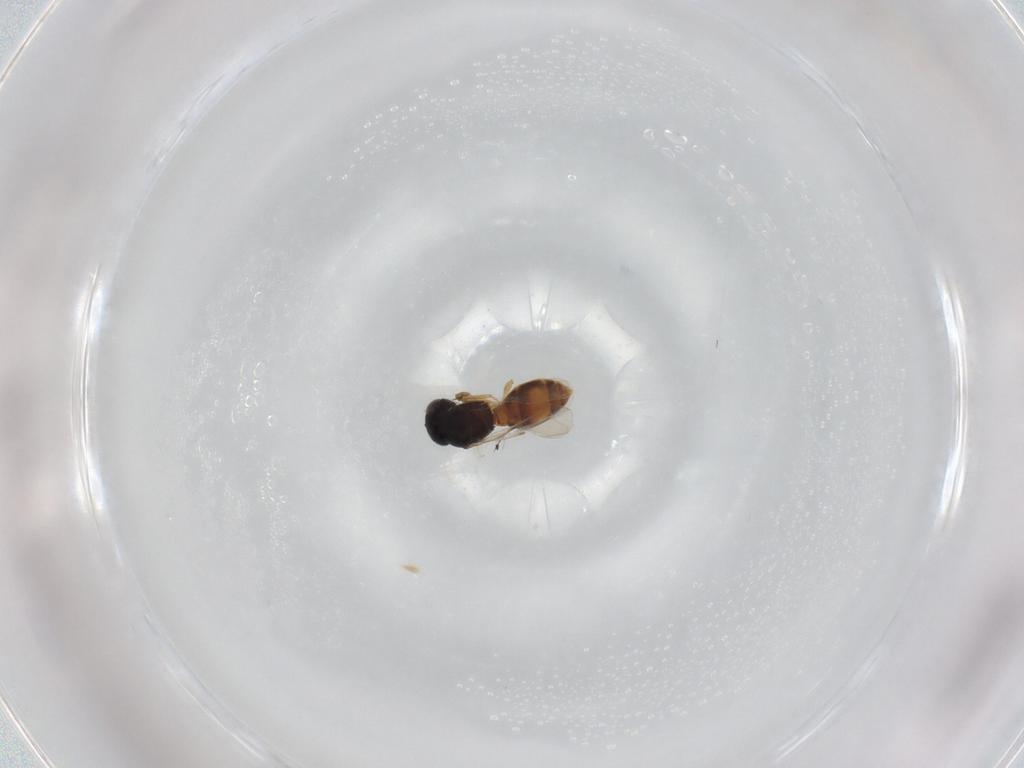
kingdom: Animalia
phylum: Arthropoda
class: Insecta
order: Hymenoptera
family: Scelionidae
